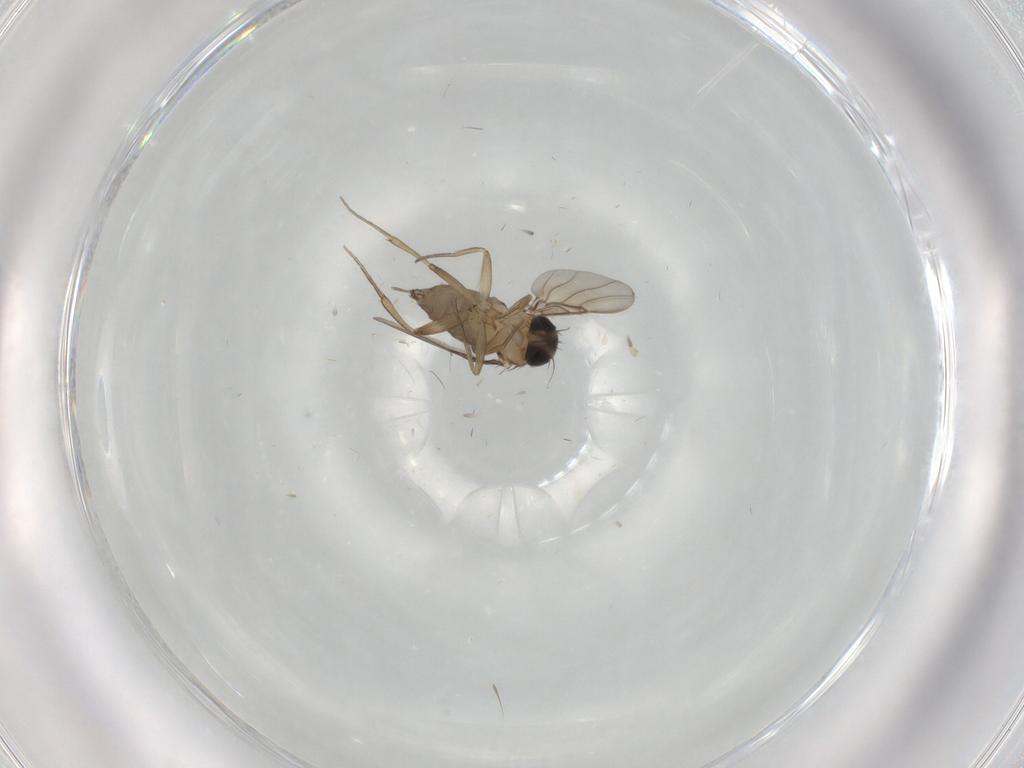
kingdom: Animalia
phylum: Arthropoda
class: Insecta
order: Diptera
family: Phoridae
